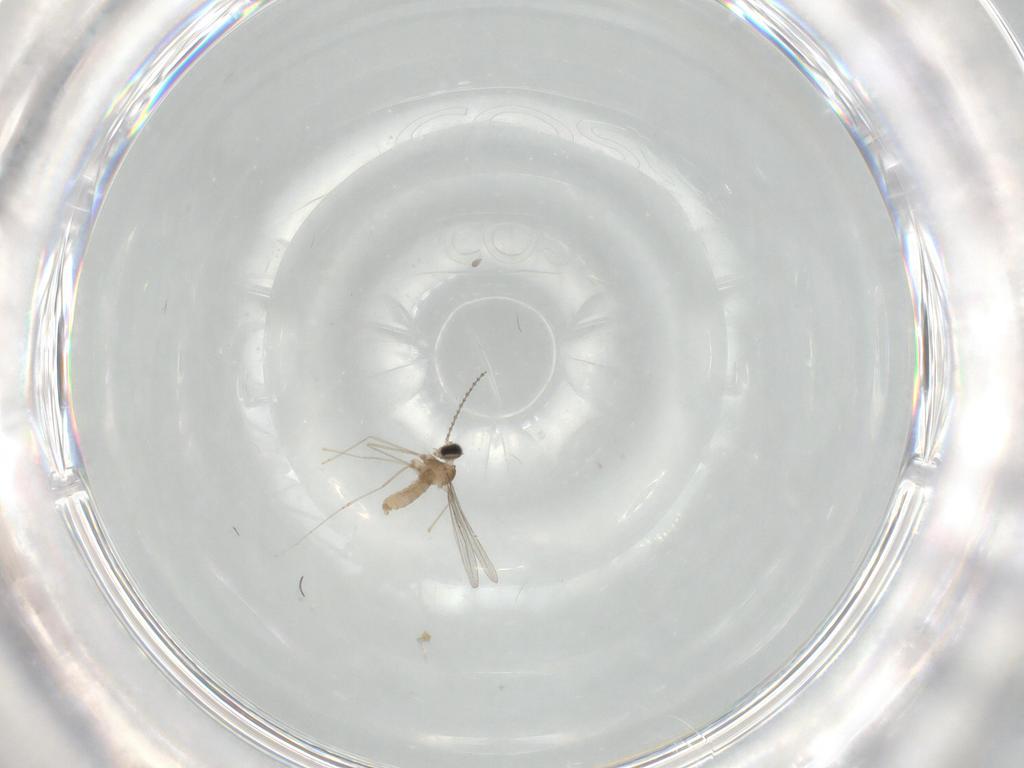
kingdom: Animalia
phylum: Arthropoda
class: Insecta
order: Diptera
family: Cecidomyiidae
